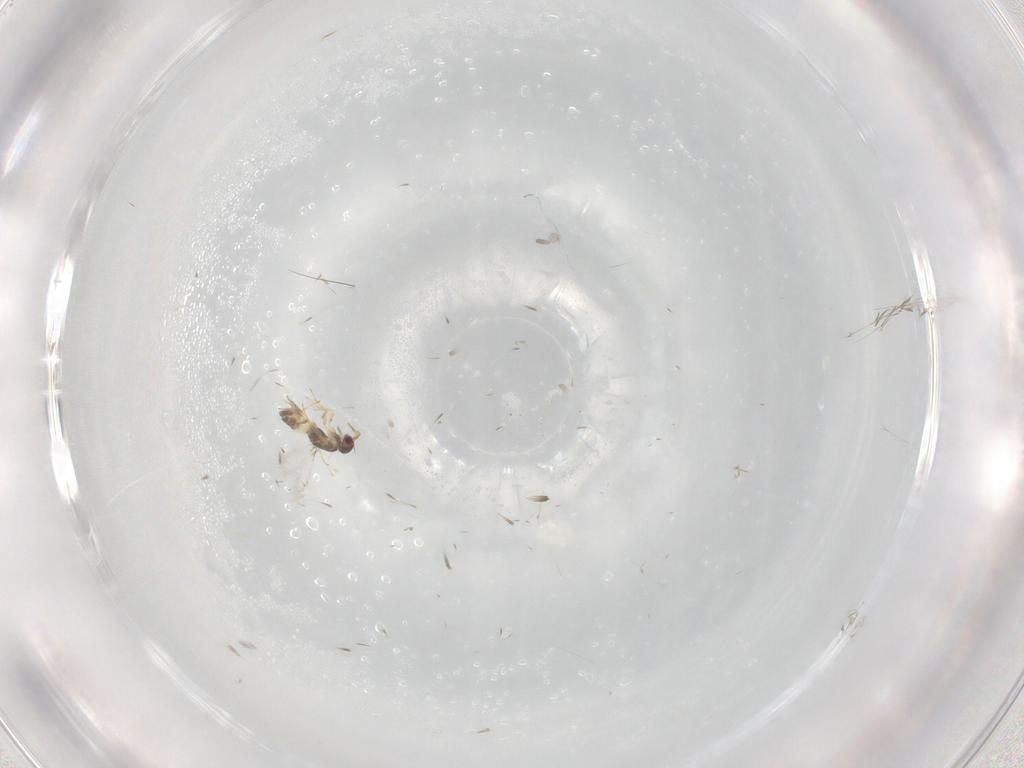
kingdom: Animalia
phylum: Arthropoda
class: Insecta
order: Hymenoptera
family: Mymaridae
